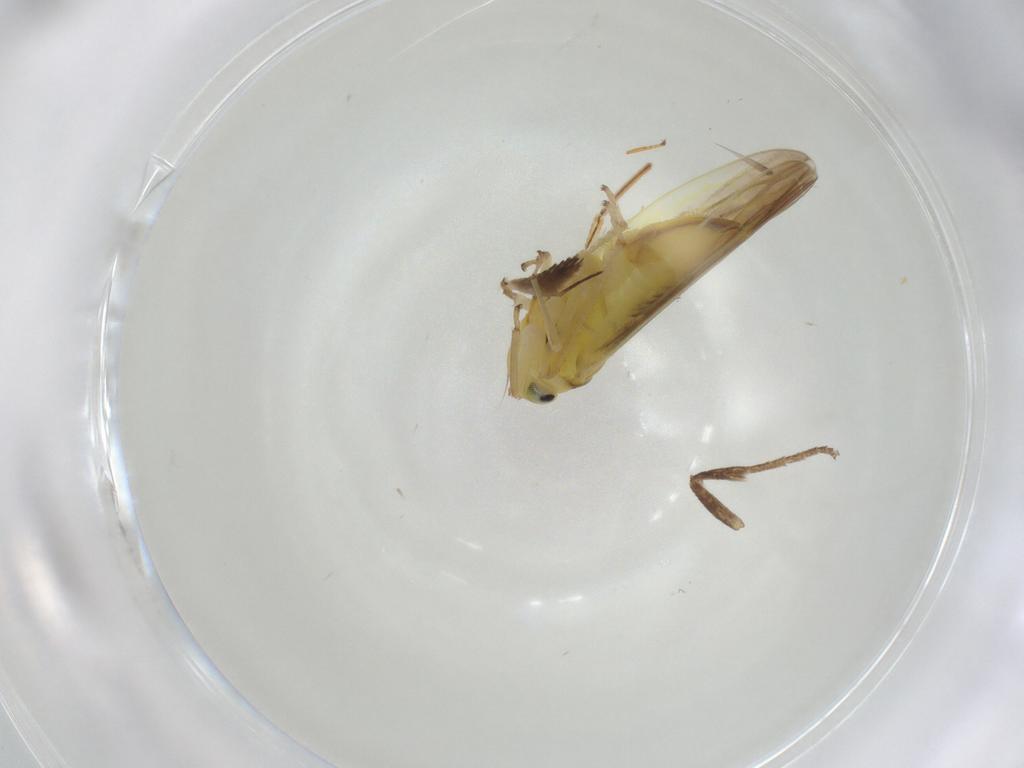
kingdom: Animalia
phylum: Arthropoda
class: Insecta
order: Hemiptera
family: Cicadellidae
